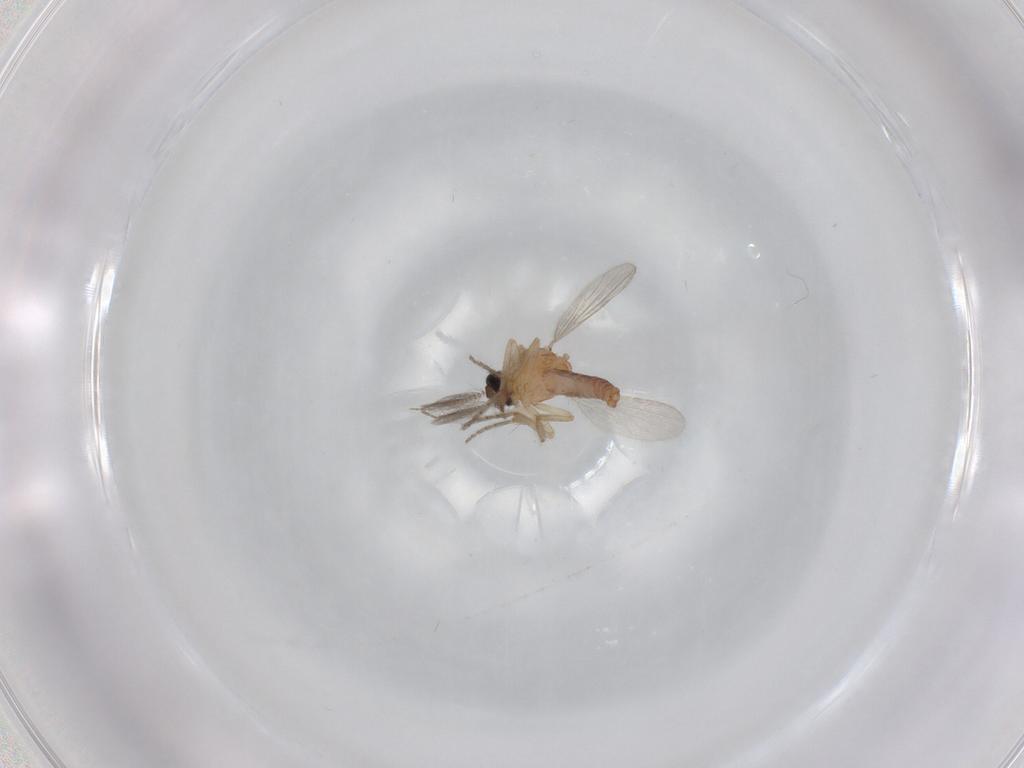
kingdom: Animalia
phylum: Arthropoda
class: Insecta
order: Diptera
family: Ceratopogonidae
